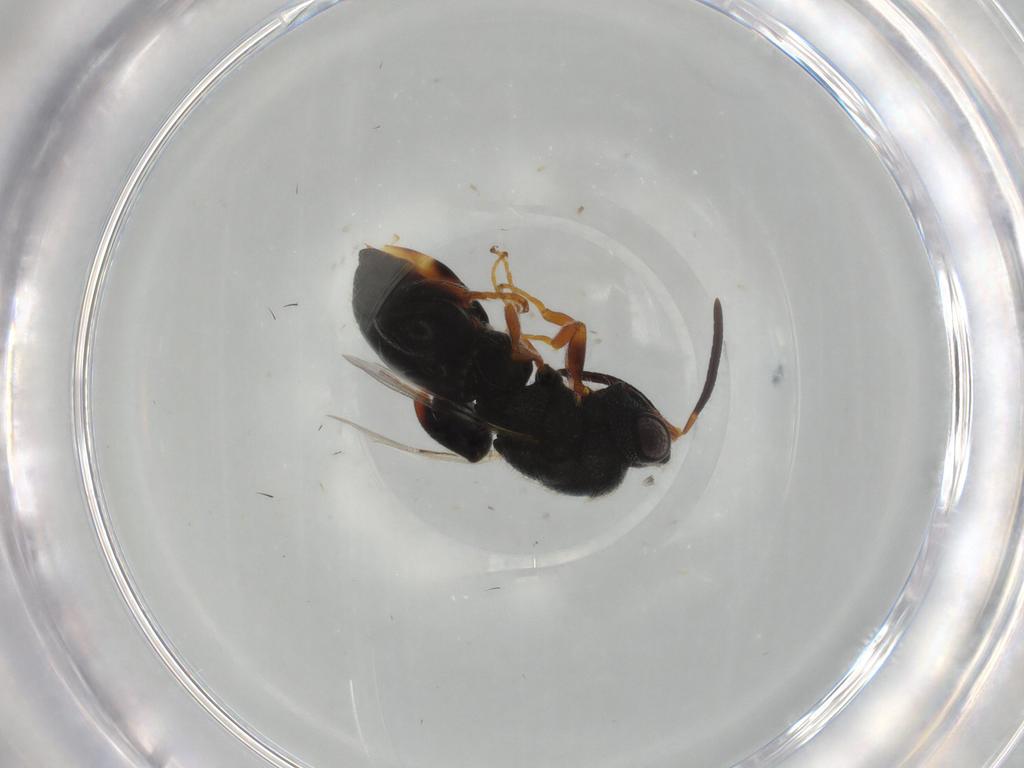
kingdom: Animalia
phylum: Arthropoda
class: Insecta
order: Hymenoptera
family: Chalcididae
